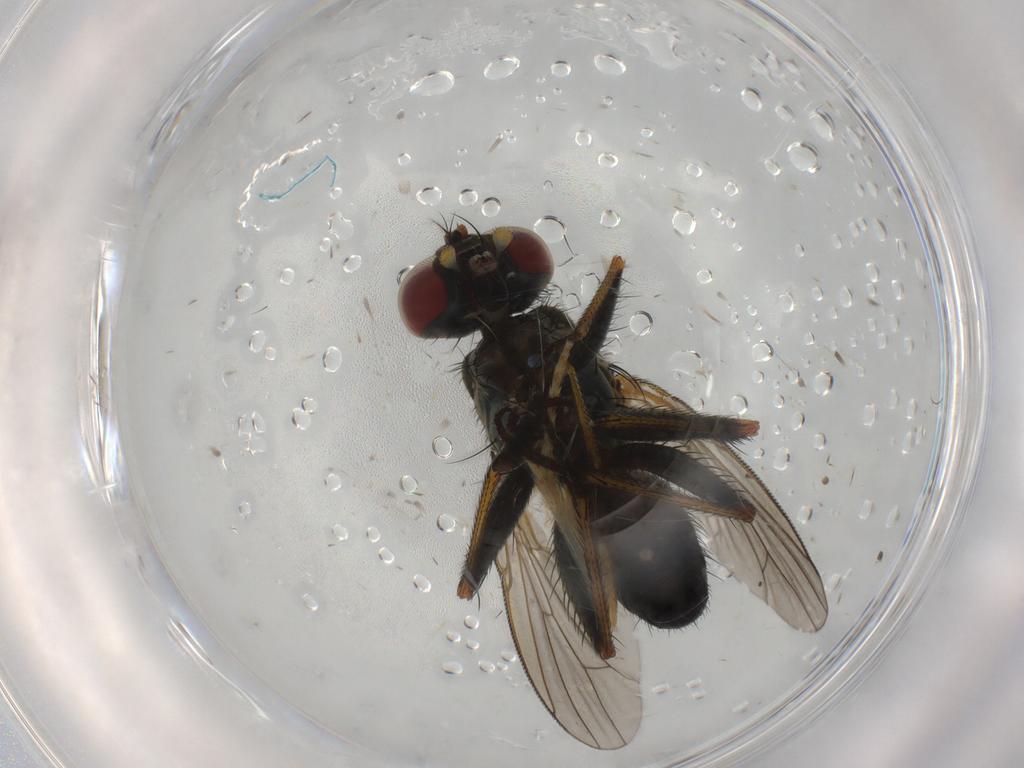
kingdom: Animalia
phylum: Arthropoda
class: Insecta
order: Diptera
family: Muscidae
